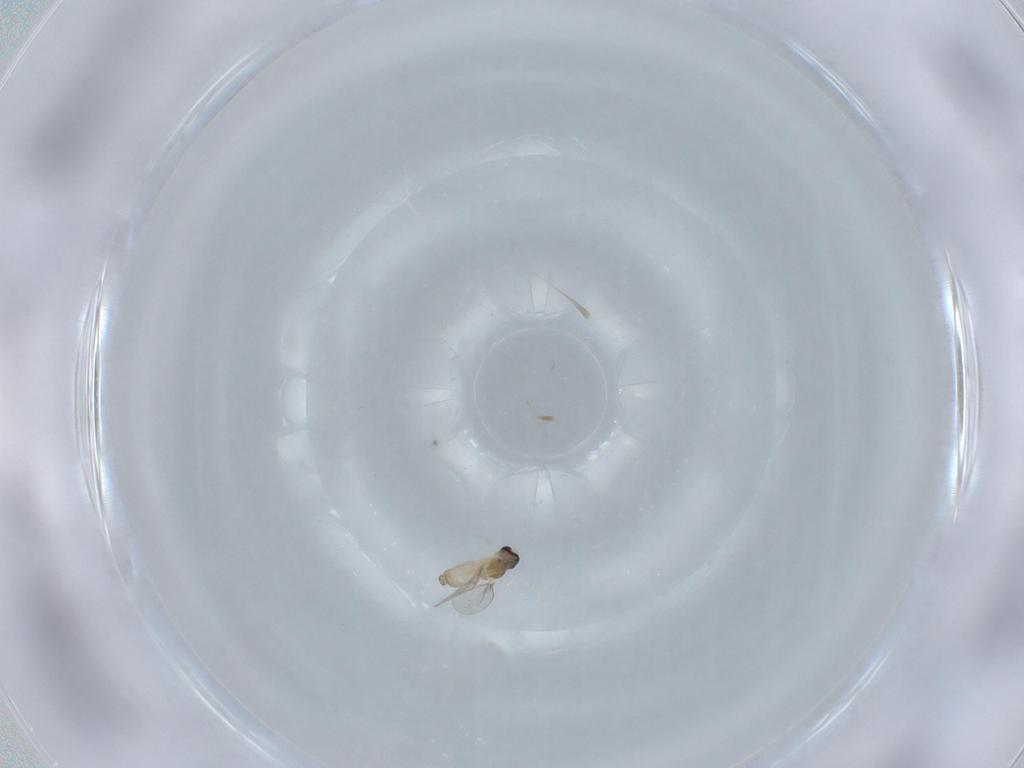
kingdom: Animalia
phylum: Arthropoda
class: Insecta
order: Diptera
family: Cecidomyiidae
